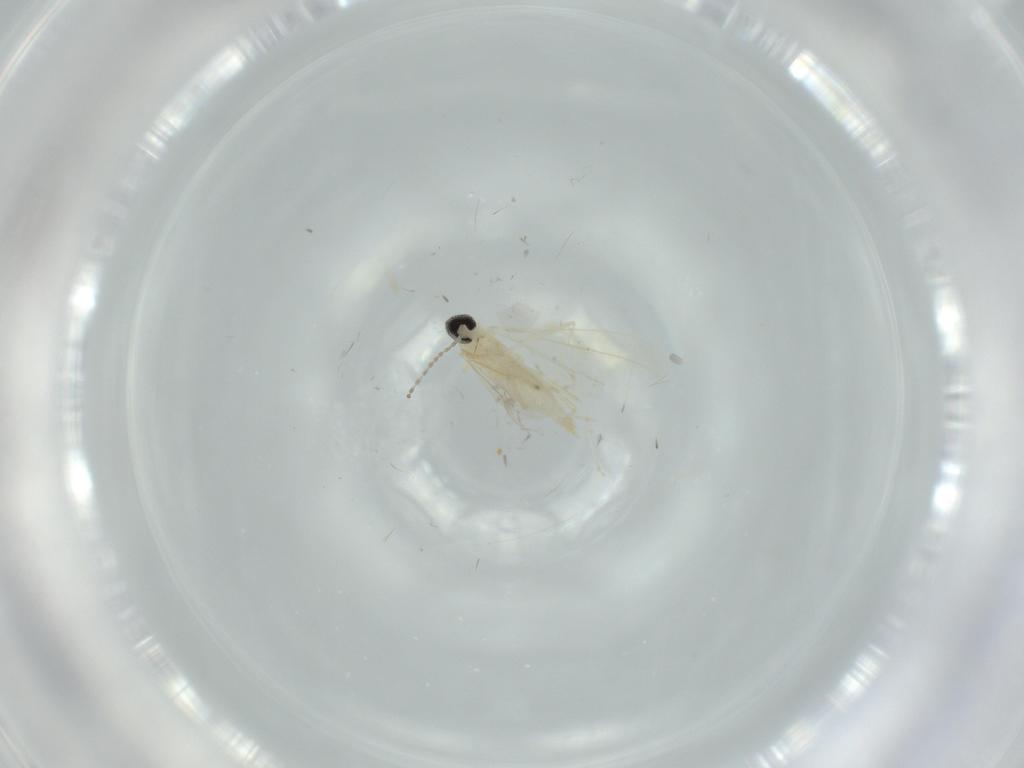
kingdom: Animalia
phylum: Arthropoda
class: Insecta
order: Diptera
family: Cecidomyiidae
